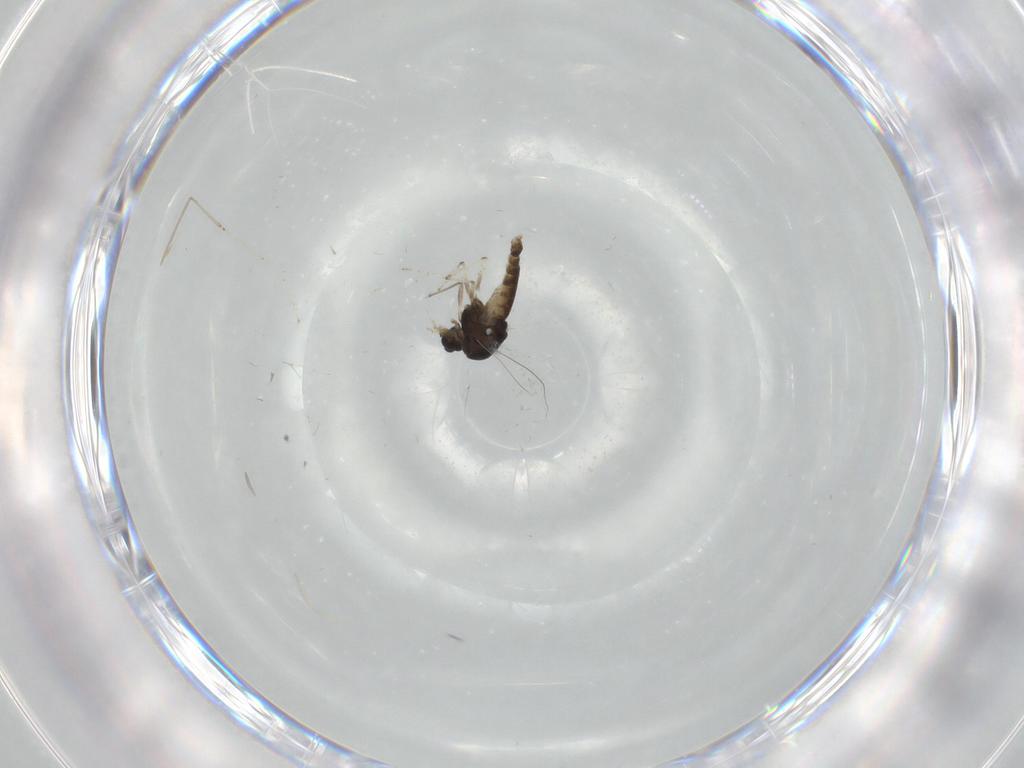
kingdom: Animalia
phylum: Arthropoda
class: Insecta
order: Diptera
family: Chironomidae
